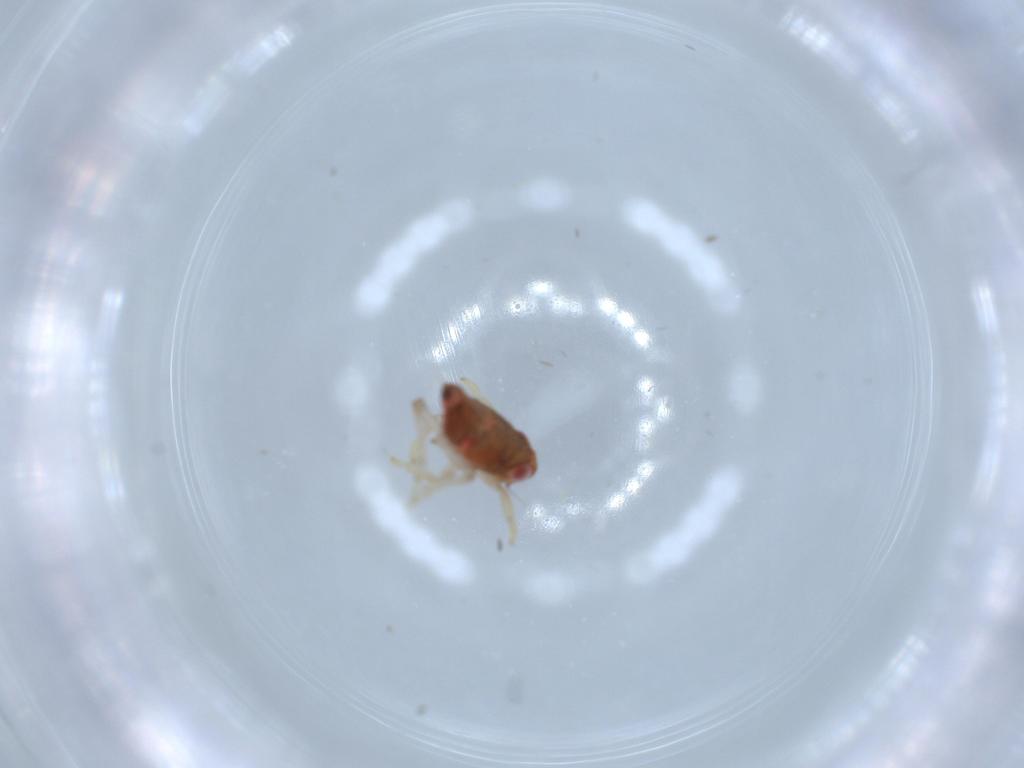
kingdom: Animalia
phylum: Arthropoda
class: Insecta
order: Hemiptera
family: Issidae
